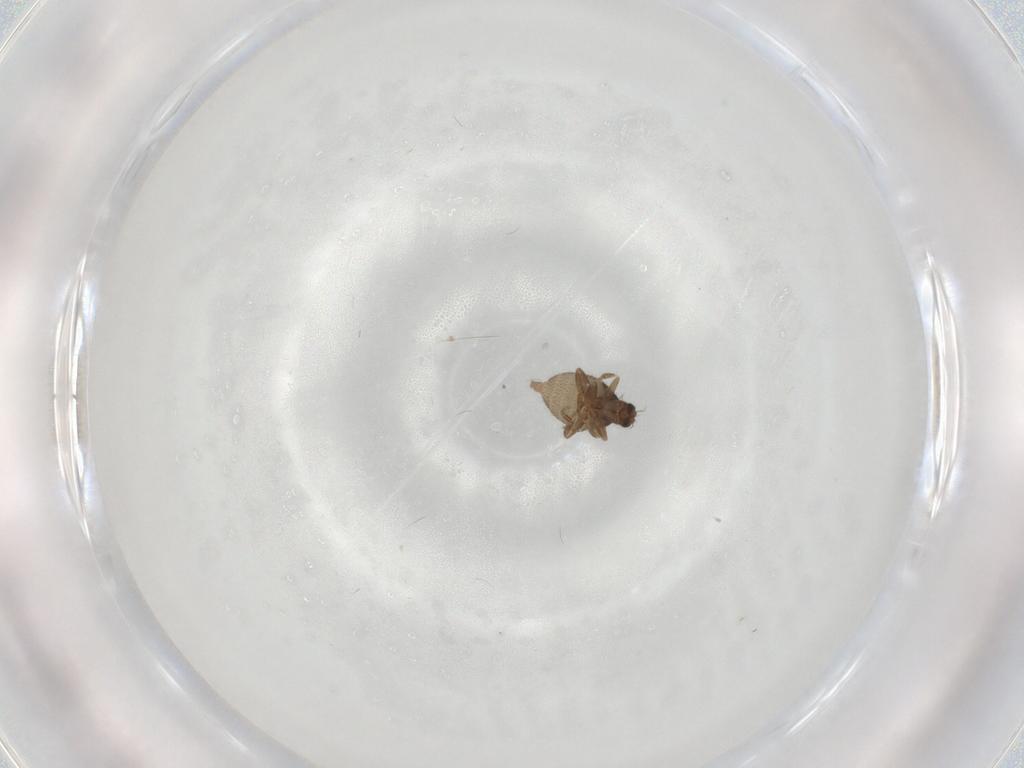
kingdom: Animalia
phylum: Arthropoda
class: Insecta
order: Diptera
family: Phoridae
